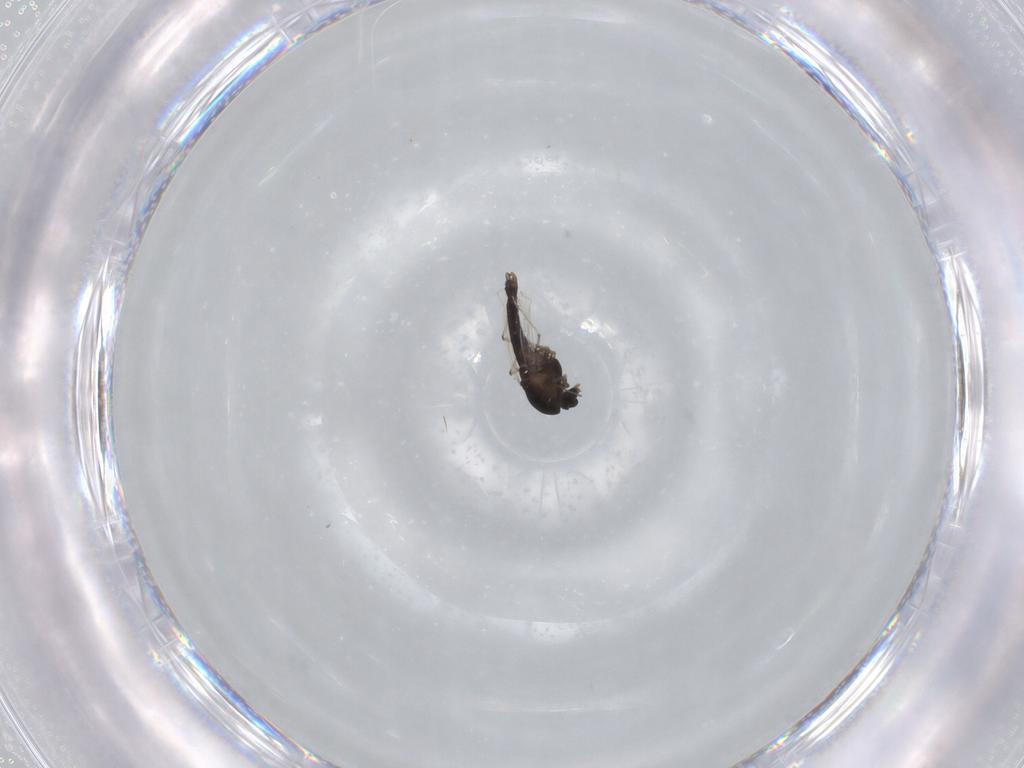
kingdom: Animalia
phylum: Arthropoda
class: Insecta
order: Diptera
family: Chironomidae
